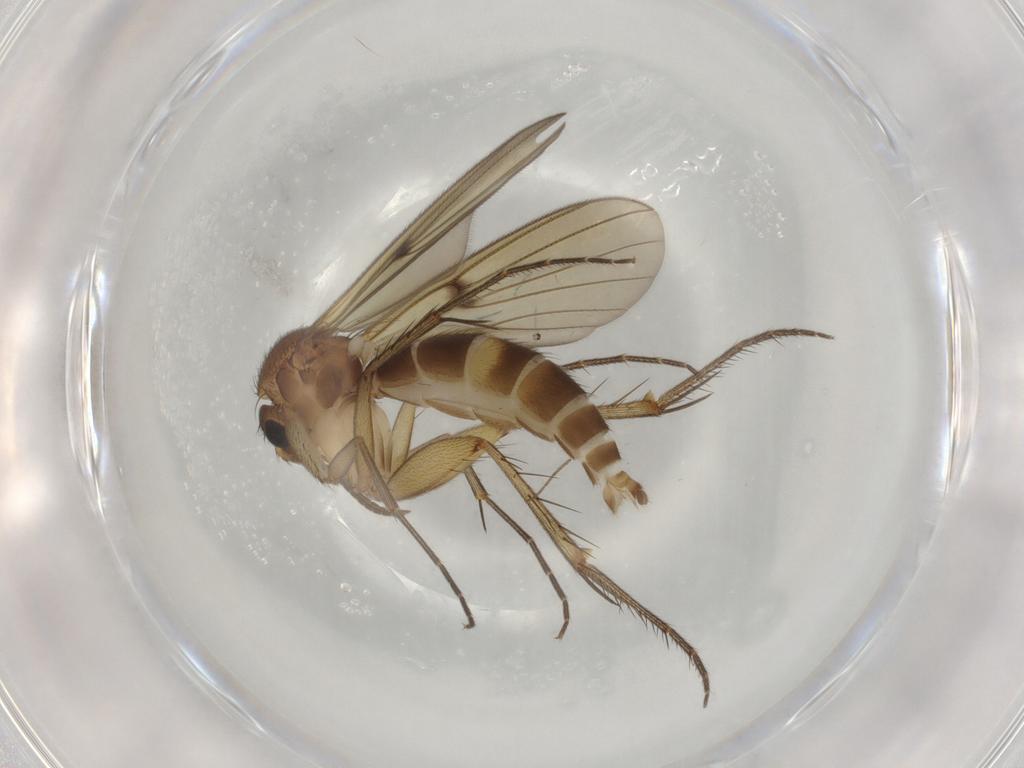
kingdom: Animalia
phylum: Arthropoda
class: Insecta
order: Diptera
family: Mycetophilidae
